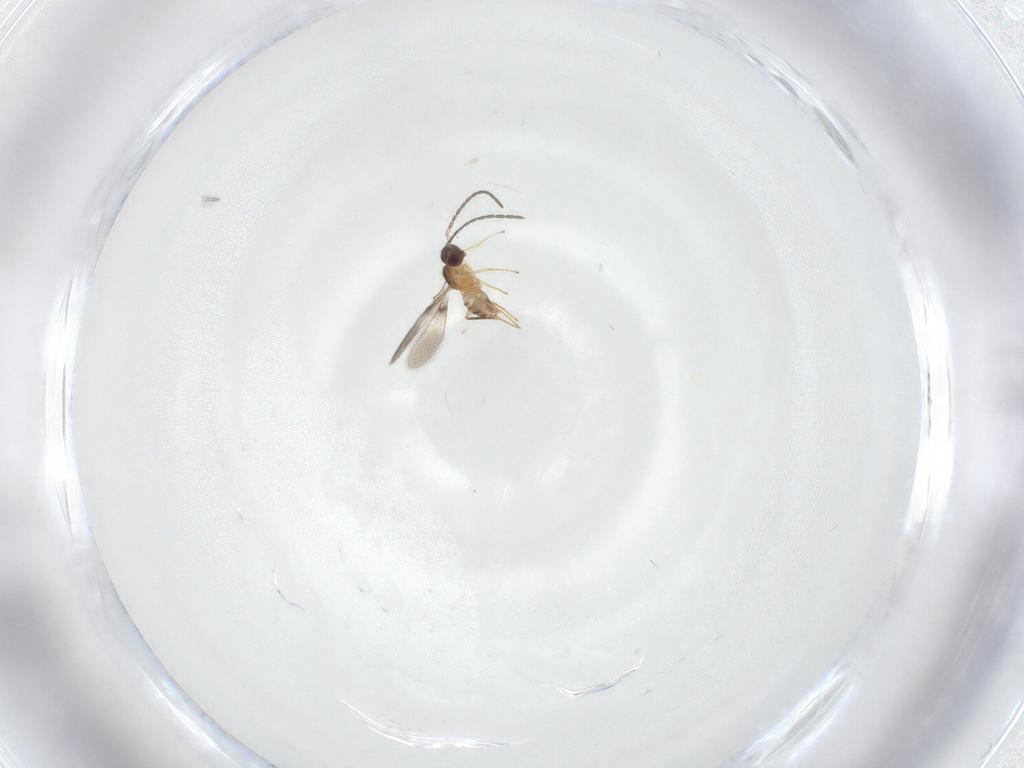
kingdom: Animalia
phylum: Arthropoda
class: Insecta
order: Hymenoptera
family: Mymaridae
